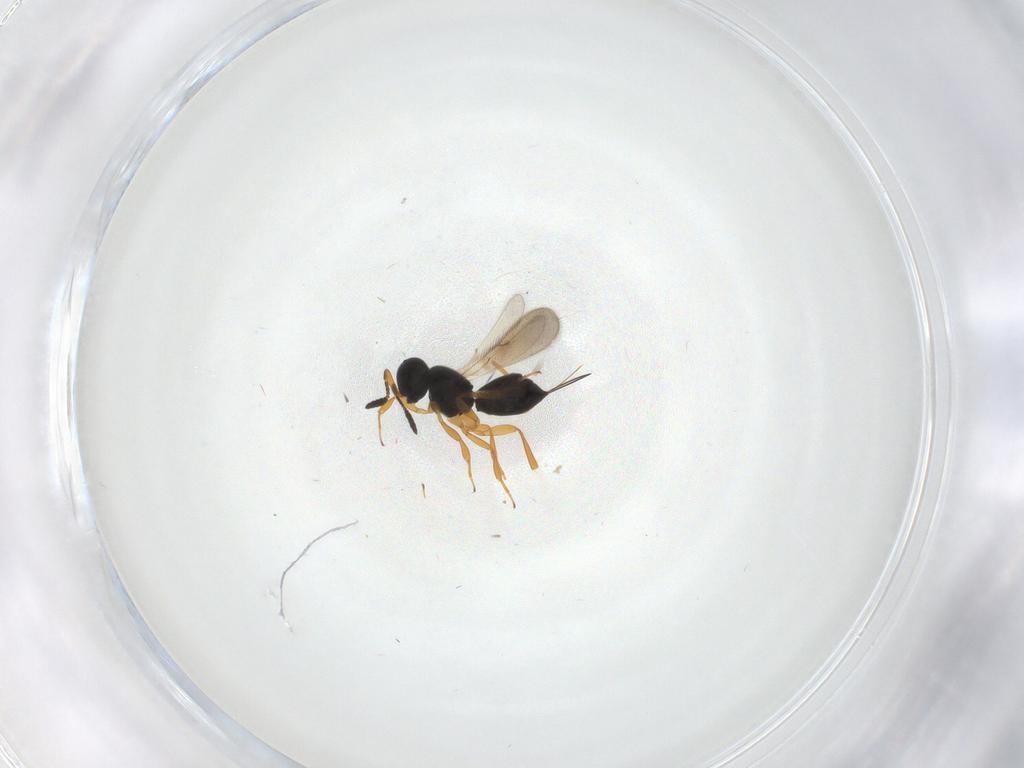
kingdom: Animalia
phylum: Arthropoda
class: Insecta
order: Hymenoptera
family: Scelionidae
